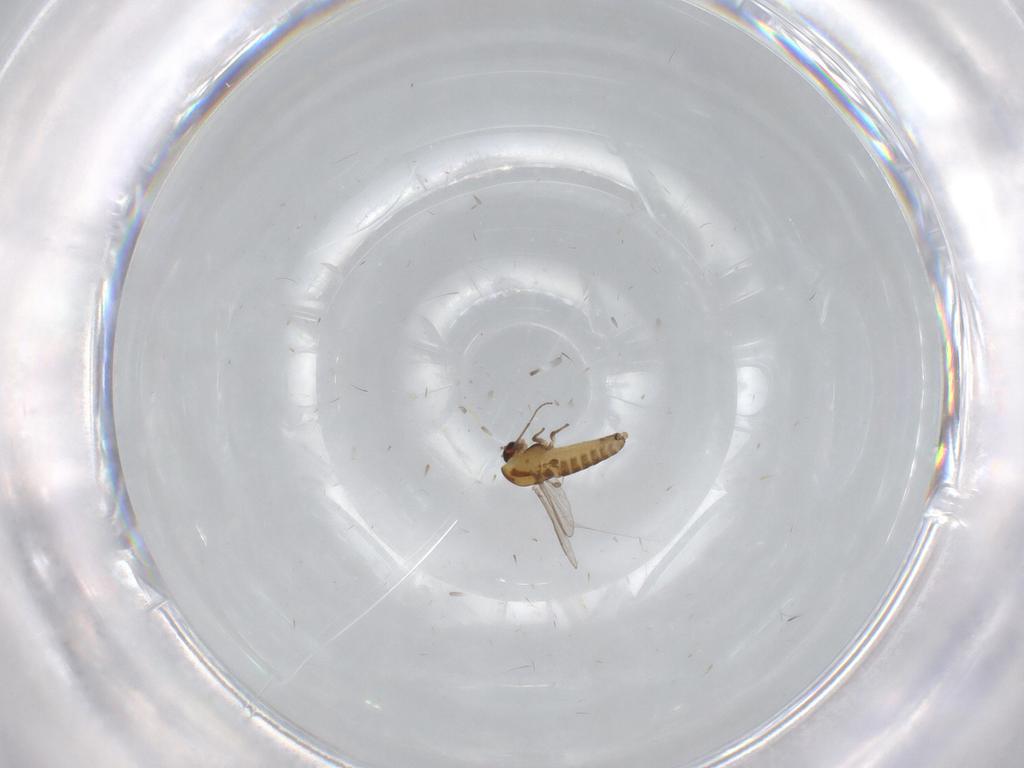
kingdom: Animalia
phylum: Arthropoda
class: Insecta
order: Diptera
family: Chironomidae
